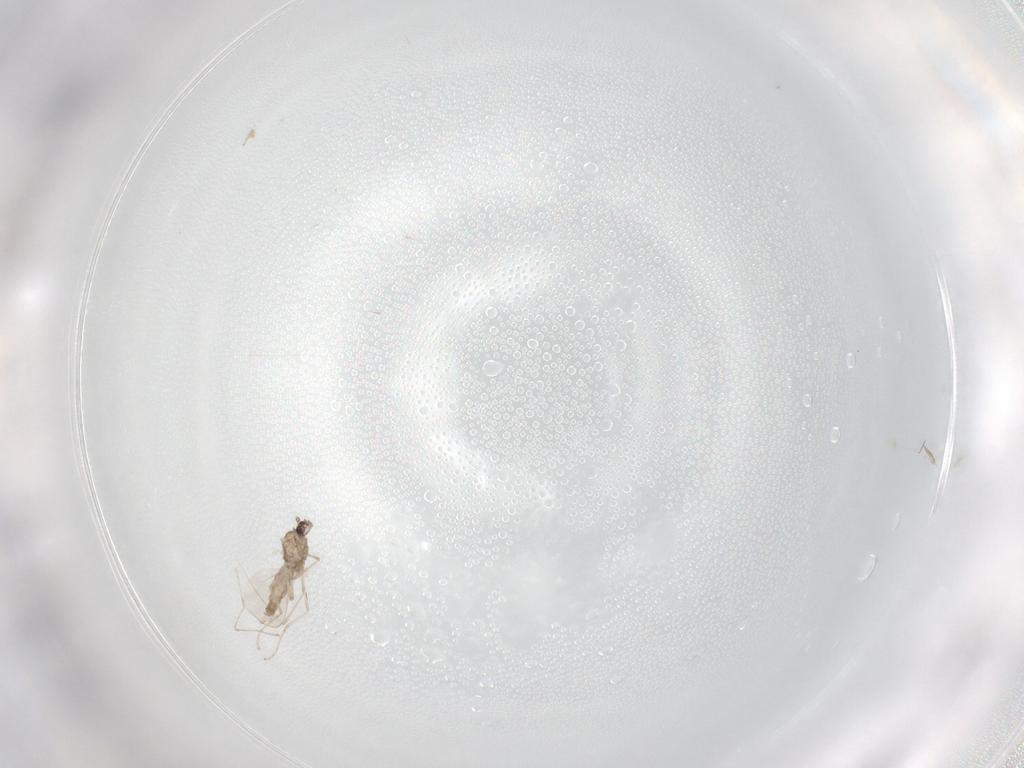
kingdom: Animalia
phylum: Arthropoda
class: Insecta
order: Diptera
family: Cecidomyiidae
